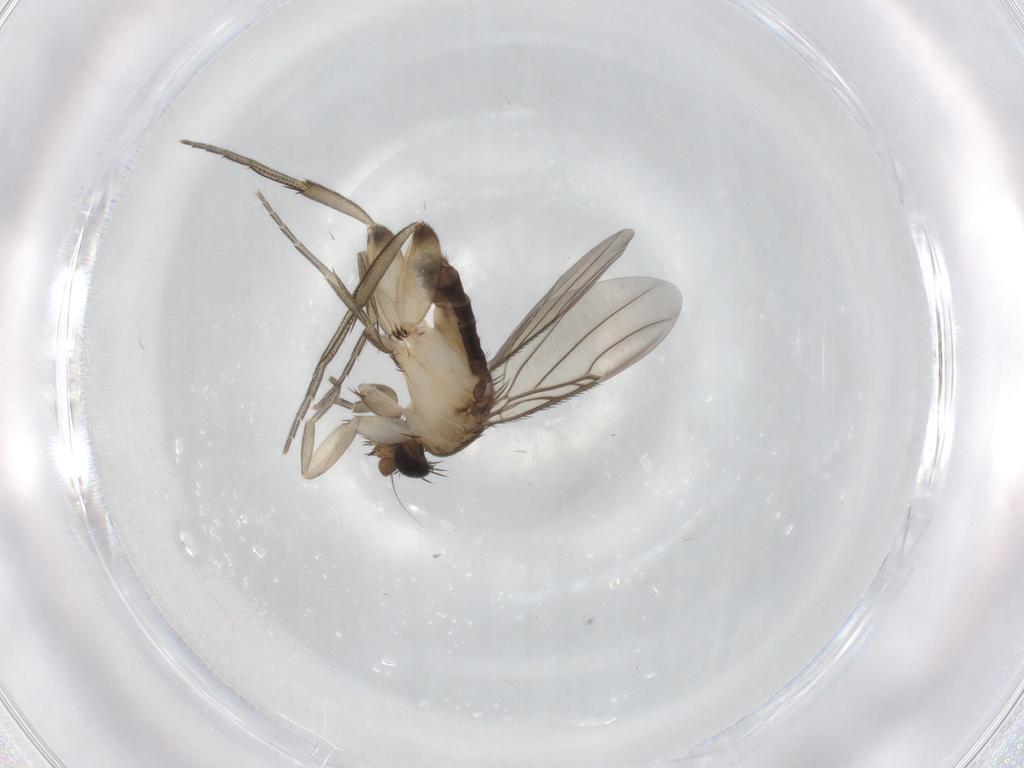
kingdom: Animalia
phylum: Arthropoda
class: Insecta
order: Diptera
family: Phoridae
